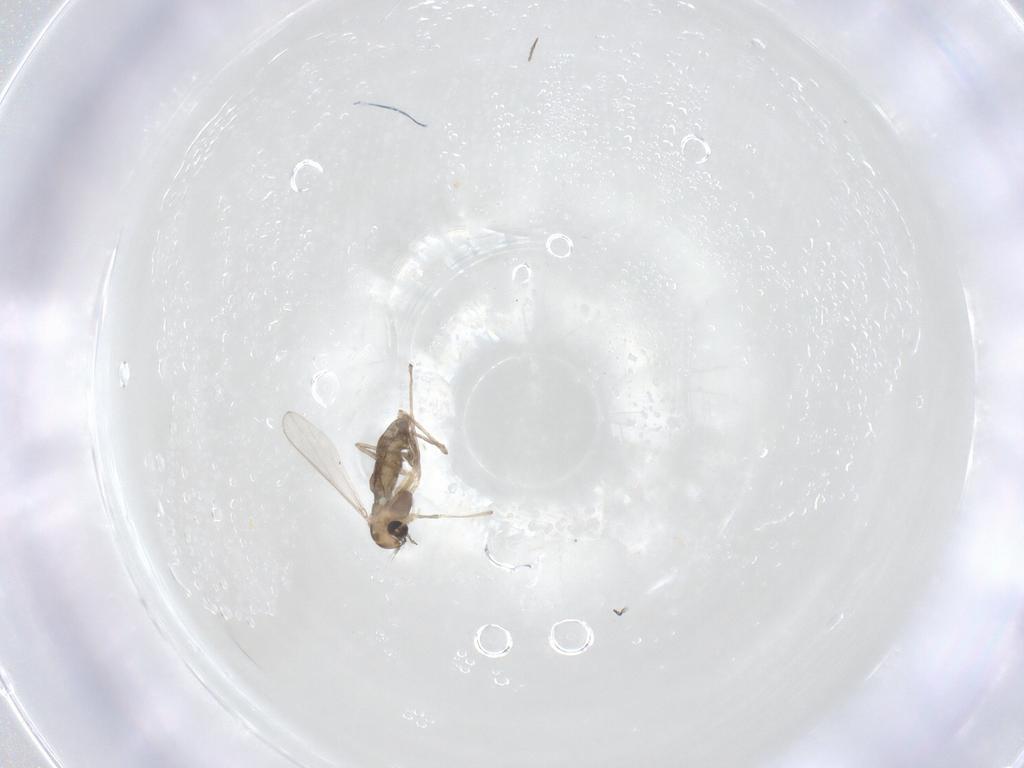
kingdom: Animalia
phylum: Arthropoda
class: Insecta
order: Diptera
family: Chironomidae
